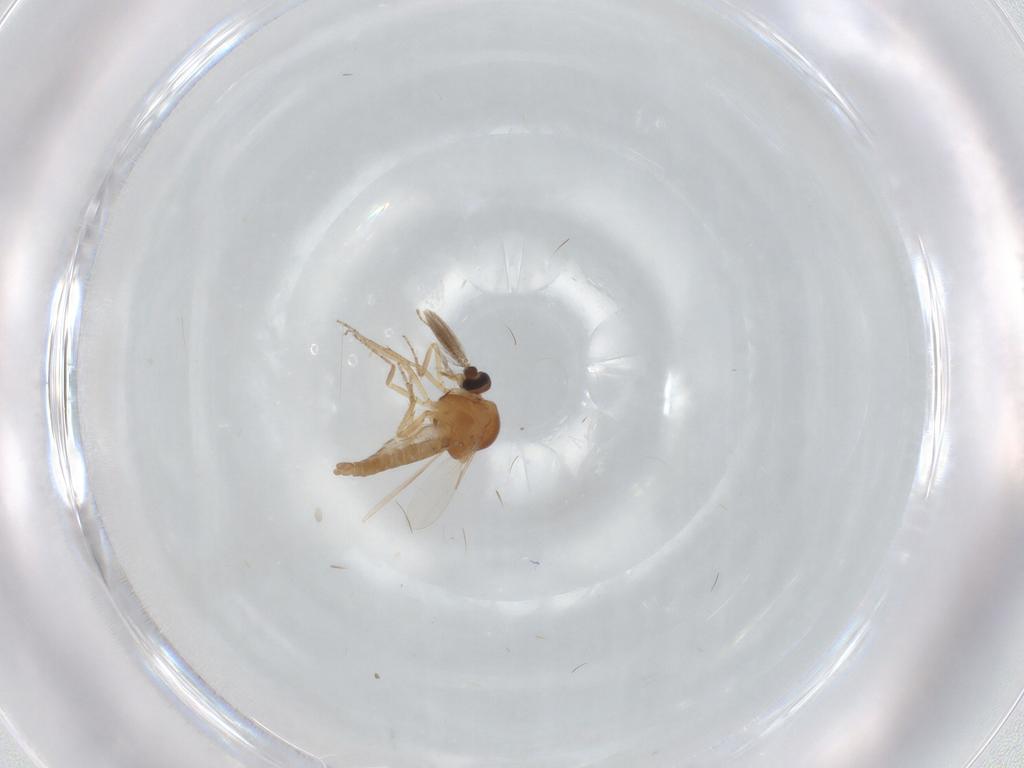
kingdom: Animalia
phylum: Arthropoda
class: Insecta
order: Diptera
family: Ceratopogonidae
